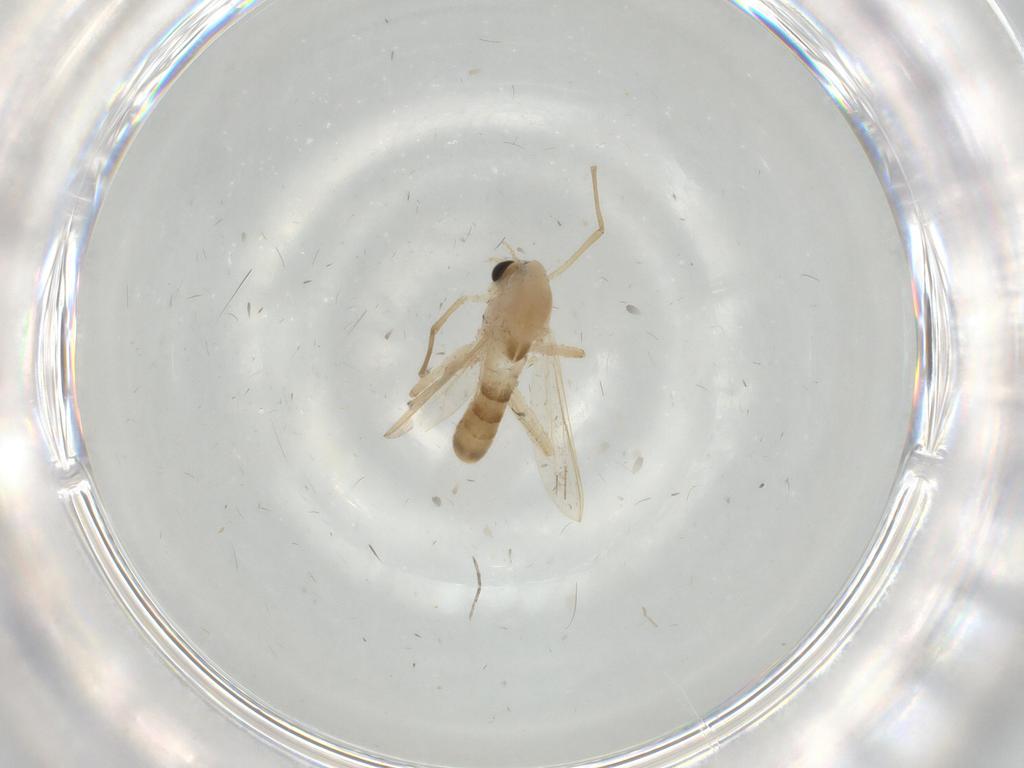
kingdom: Animalia
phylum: Arthropoda
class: Insecta
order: Diptera
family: Chironomidae
